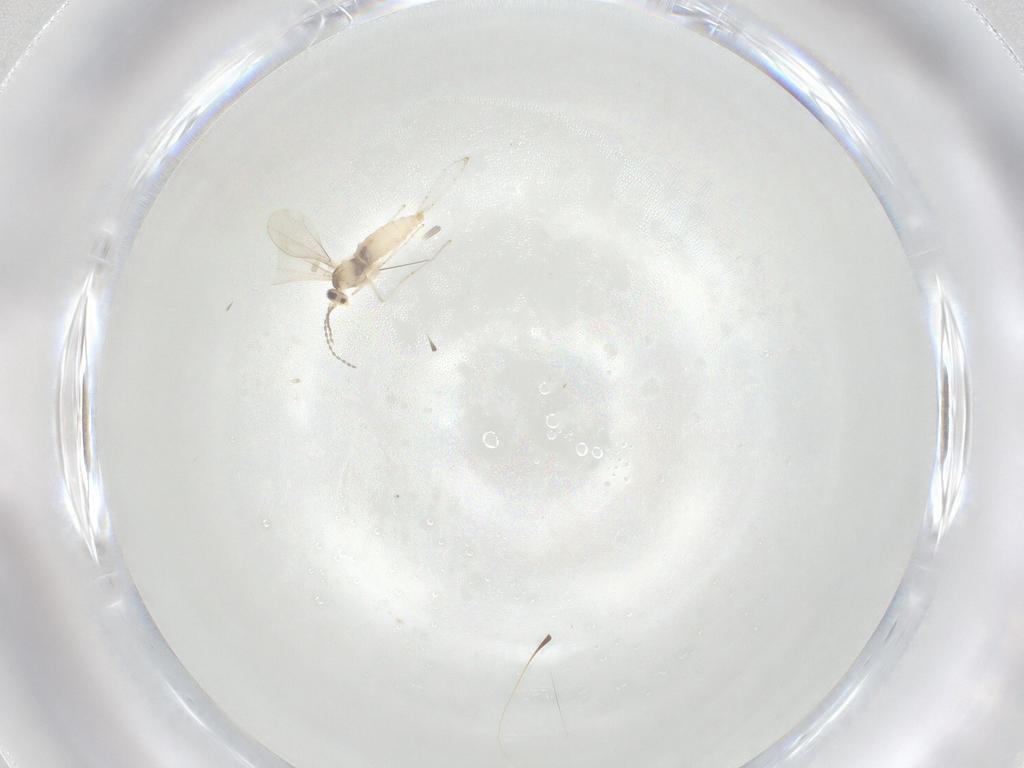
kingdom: Animalia
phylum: Arthropoda
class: Insecta
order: Diptera
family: Cecidomyiidae
